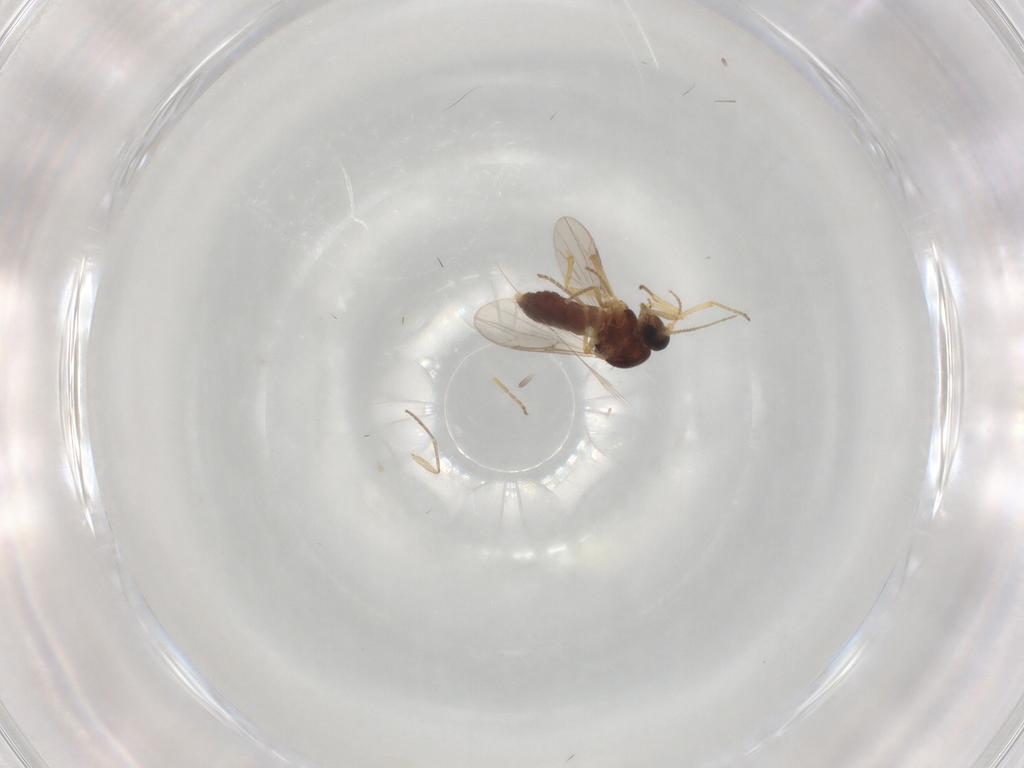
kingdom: Animalia
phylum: Arthropoda
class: Insecta
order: Diptera
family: Ceratopogonidae
